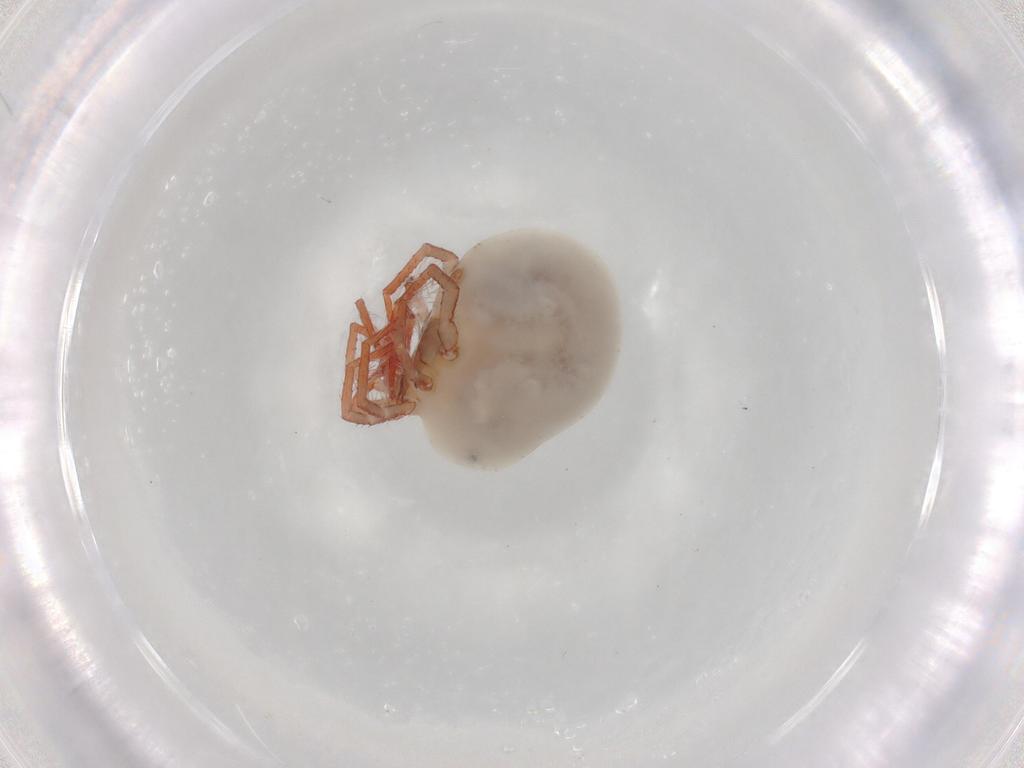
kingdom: Animalia
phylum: Arthropoda
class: Arachnida
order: Trombidiformes
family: Pionidae
